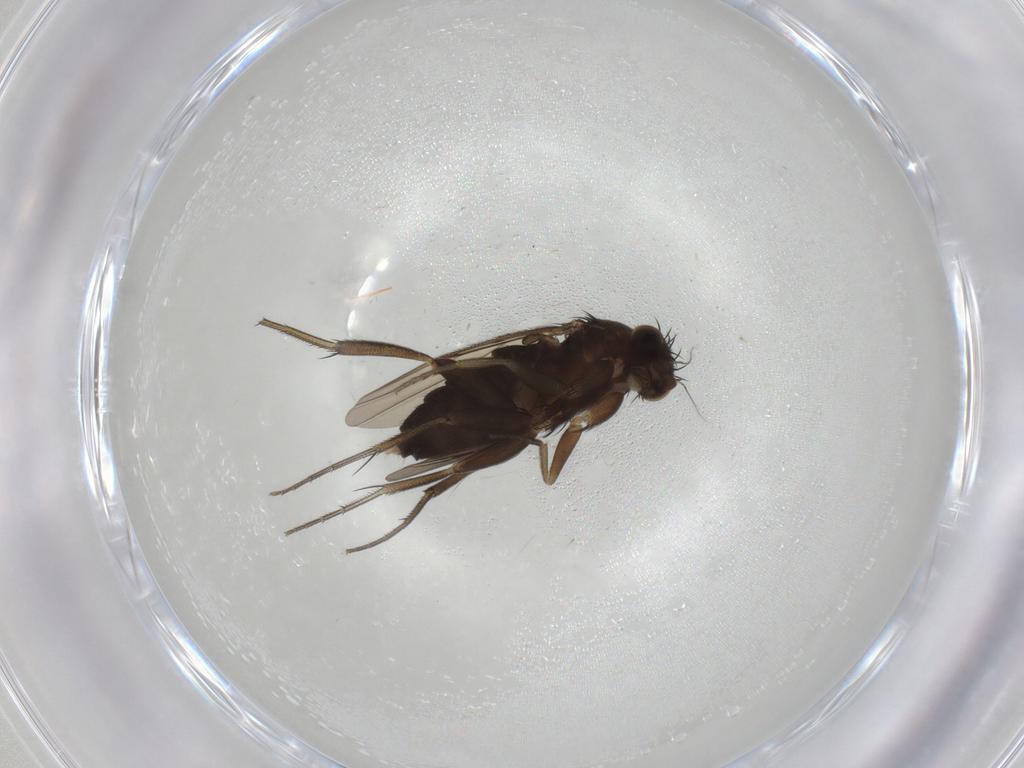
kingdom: Animalia
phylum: Arthropoda
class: Insecta
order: Diptera
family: Phoridae
